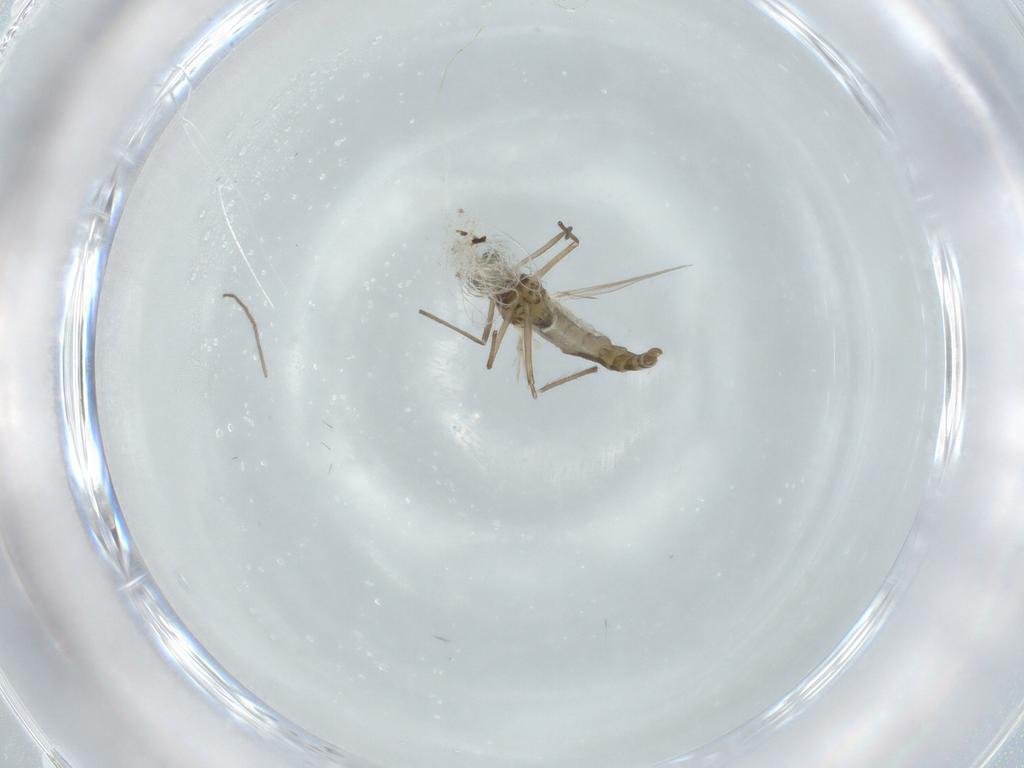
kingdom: Animalia
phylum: Arthropoda
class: Insecta
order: Diptera
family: Chironomidae
